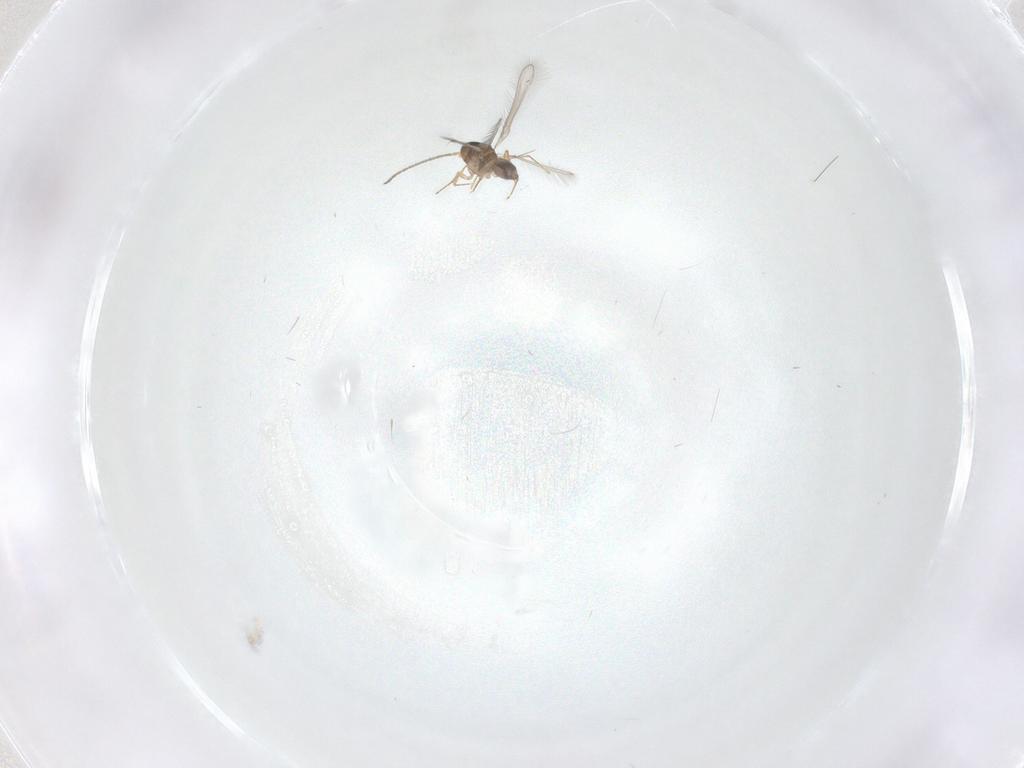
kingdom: Animalia
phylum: Arthropoda
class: Insecta
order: Hymenoptera
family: Mymaridae
